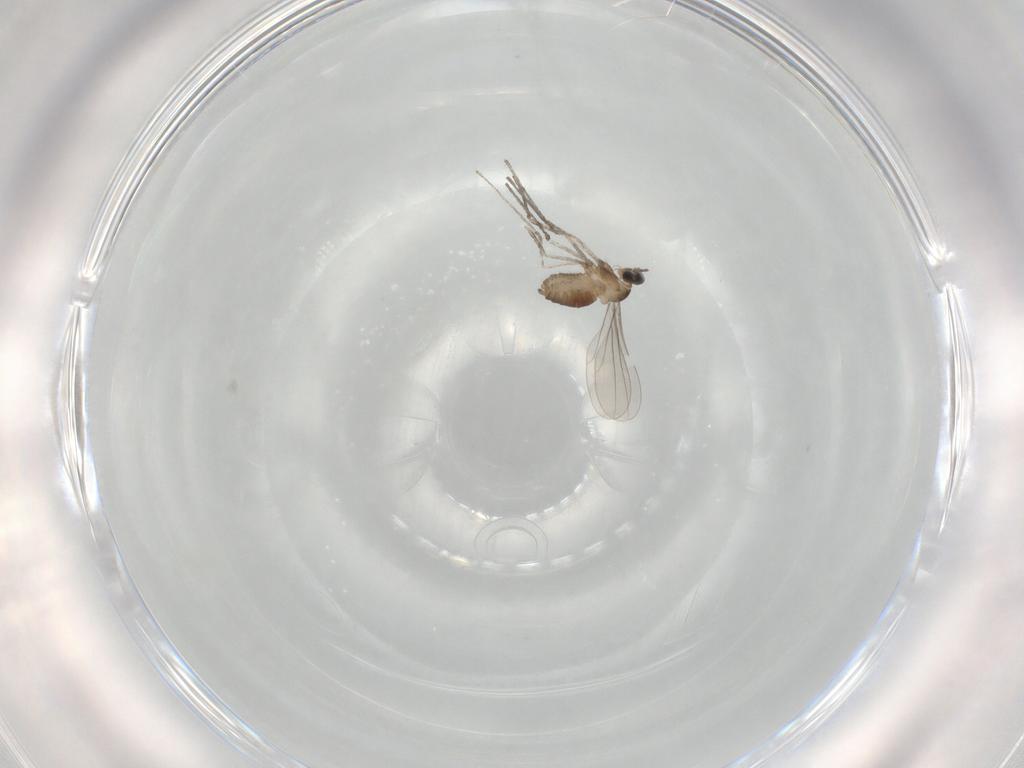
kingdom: Animalia
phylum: Arthropoda
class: Insecta
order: Diptera
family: Cecidomyiidae
